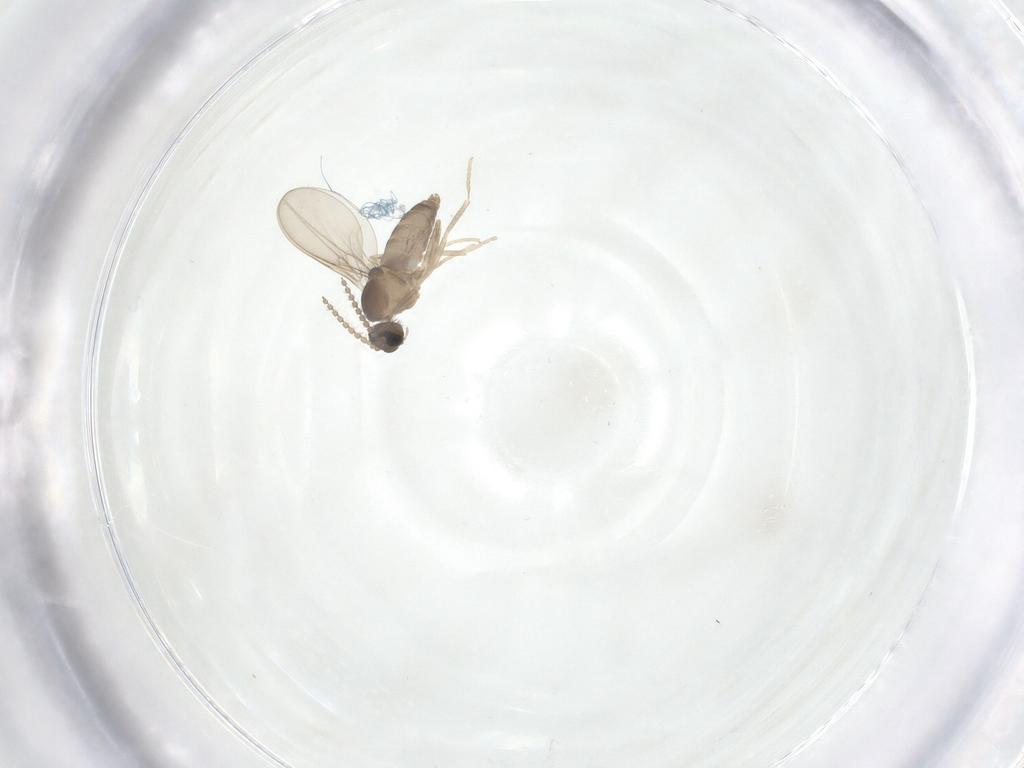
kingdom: Animalia
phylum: Arthropoda
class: Insecta
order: Diptera
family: Cecidomyiidae
